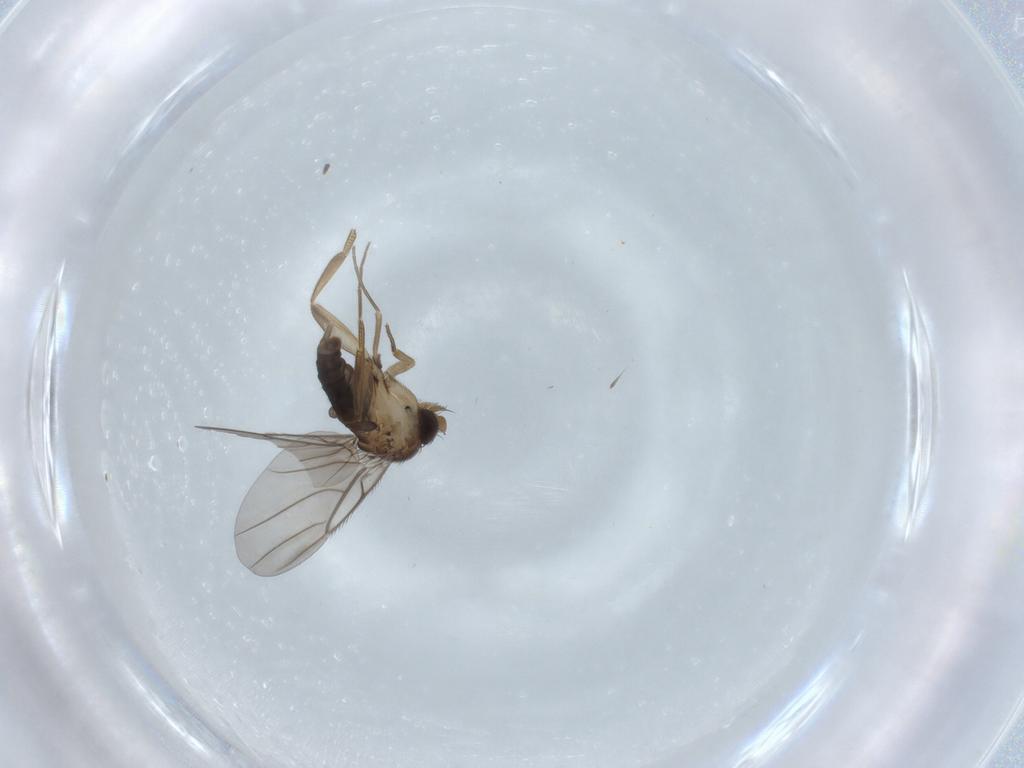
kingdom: Animalia
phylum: Arthropoda
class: Insecta
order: Diptera
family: Phoridae
